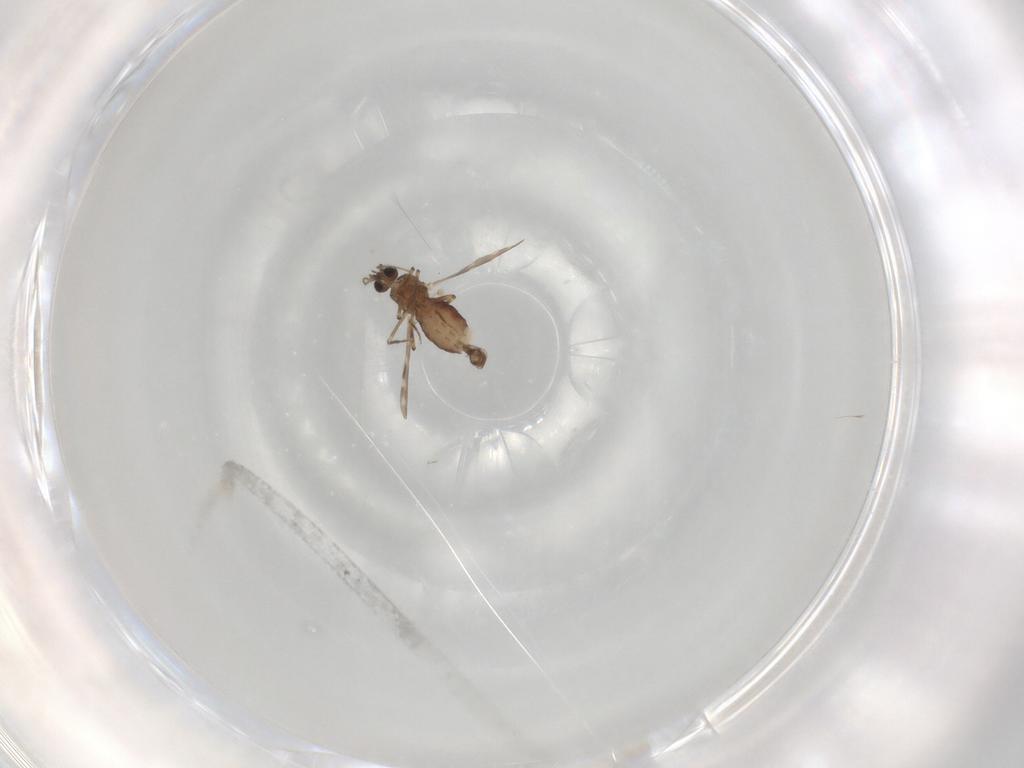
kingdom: Animalia
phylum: Arthropoda
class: Insecta
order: Diptera
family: Ceratopogonidae
